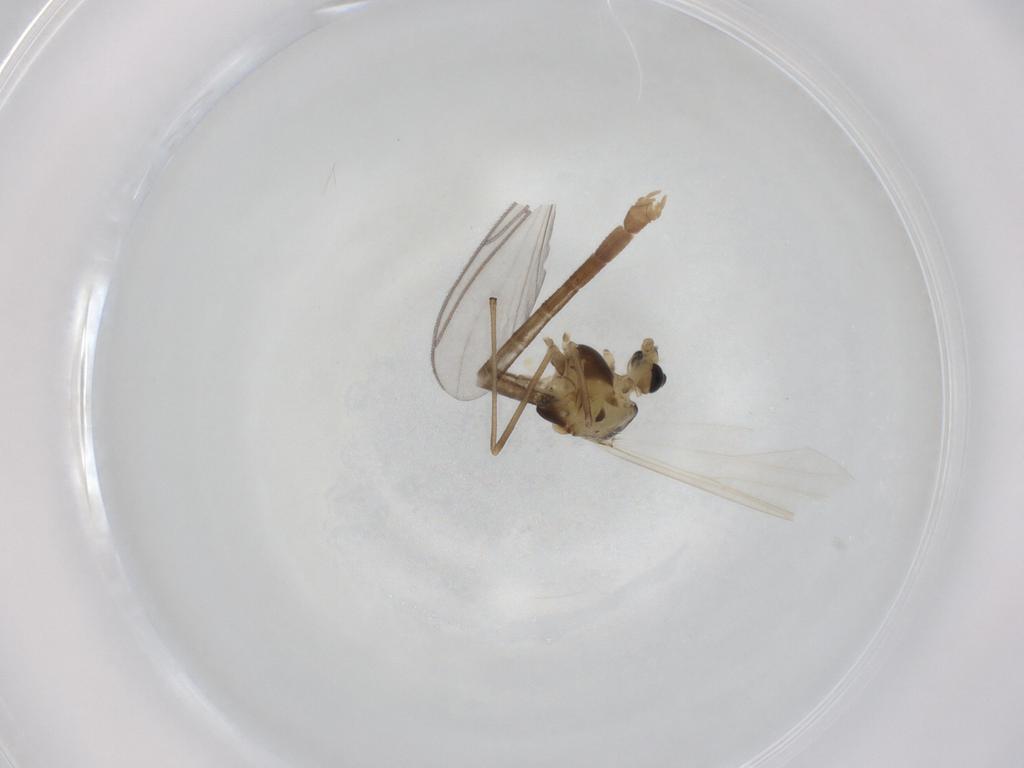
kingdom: Animalia
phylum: Arthropoda
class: Insecta
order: Diptera
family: Chironomidae
